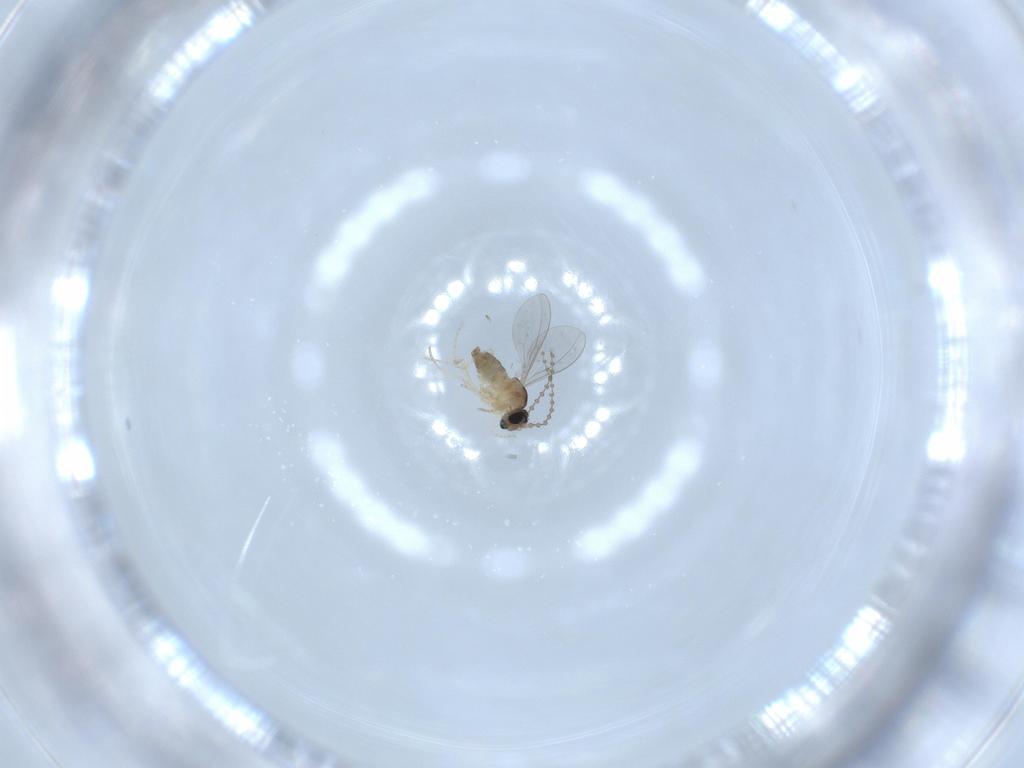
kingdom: Animalia
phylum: Arthropoda
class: Insecta
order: Diptera
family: Cecidomyiidae
